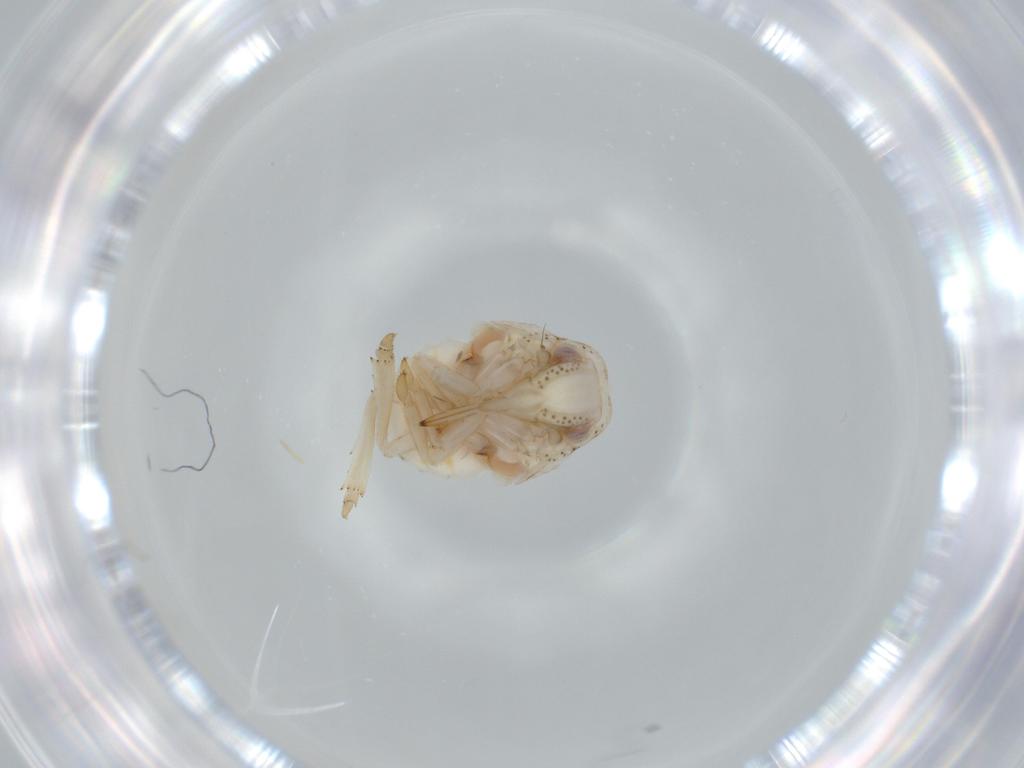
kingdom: Animalia
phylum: Arthropoda
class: Insecta
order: Hemiptera
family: Acanaloniidae
